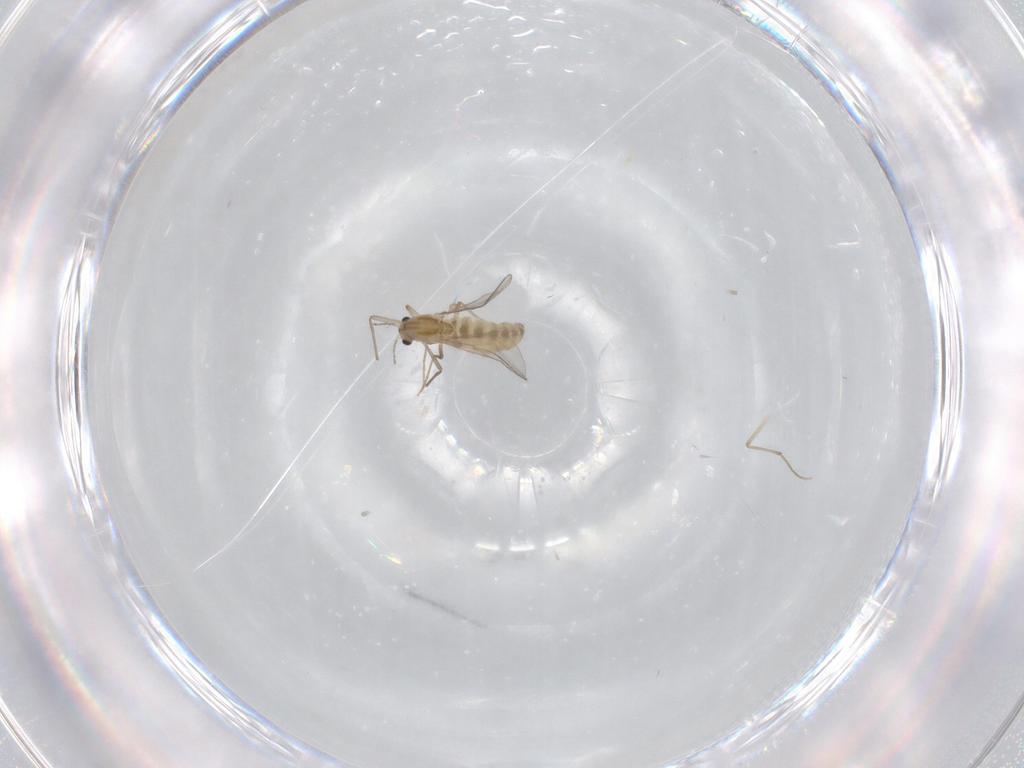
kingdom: Animalia
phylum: Arthropoda
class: Insecta
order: Diptera
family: Chironomidae
